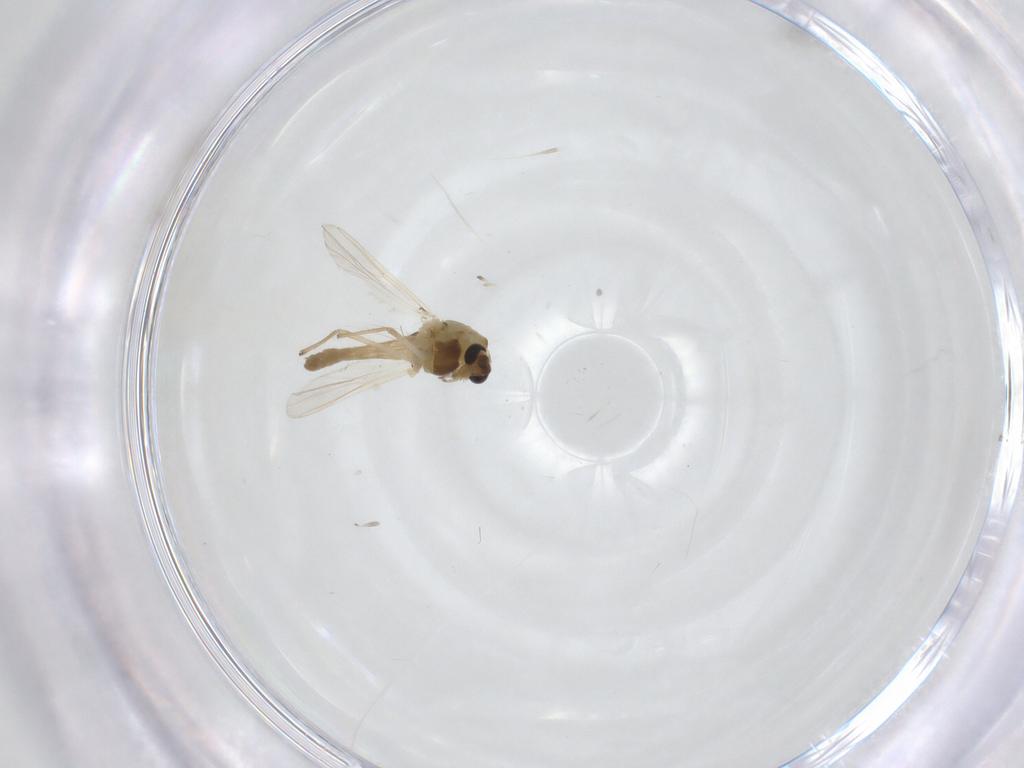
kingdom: Animalia
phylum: Arthropoda
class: Insecta
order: Diptera
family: Chironomidae
